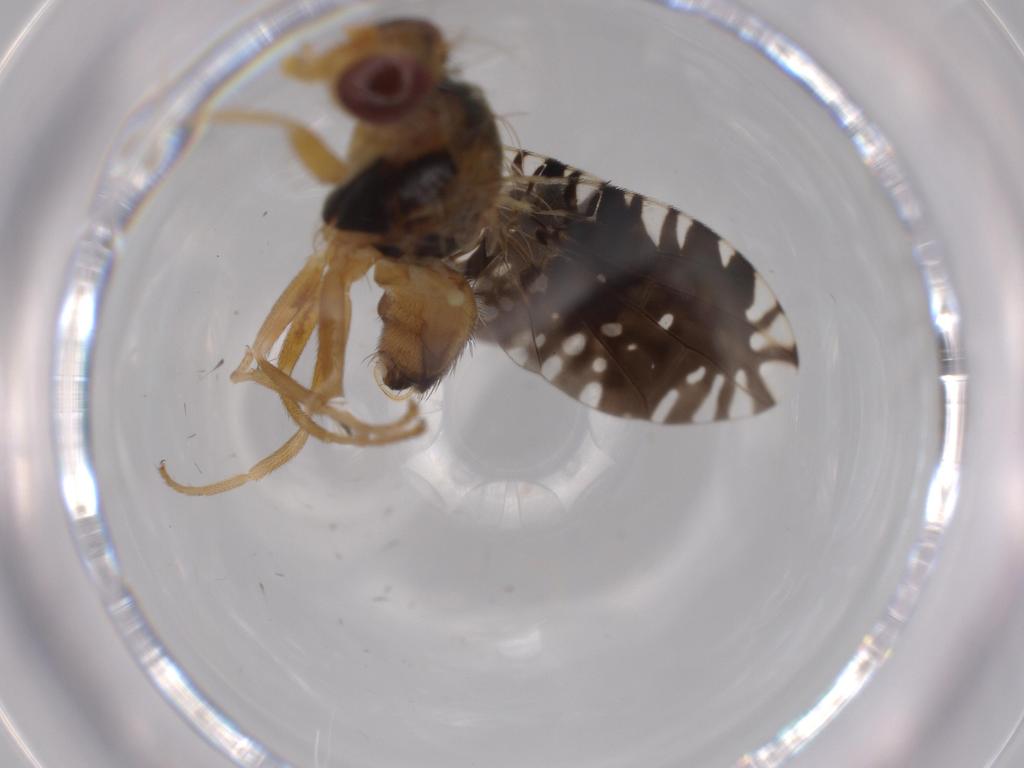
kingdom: Animalia
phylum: Arthropoda
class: Insecta
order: Diptera
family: Tephritidae
